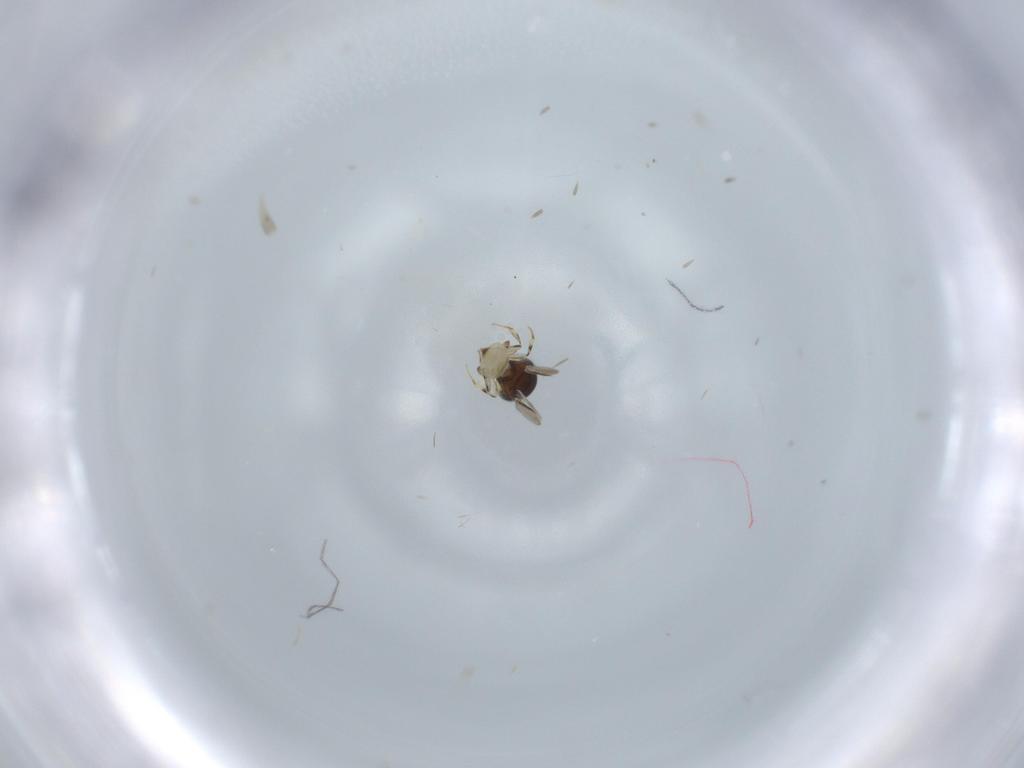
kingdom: Animalia
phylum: Arthropoda
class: Insecta
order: Hymenoptera
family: Scelionidae
